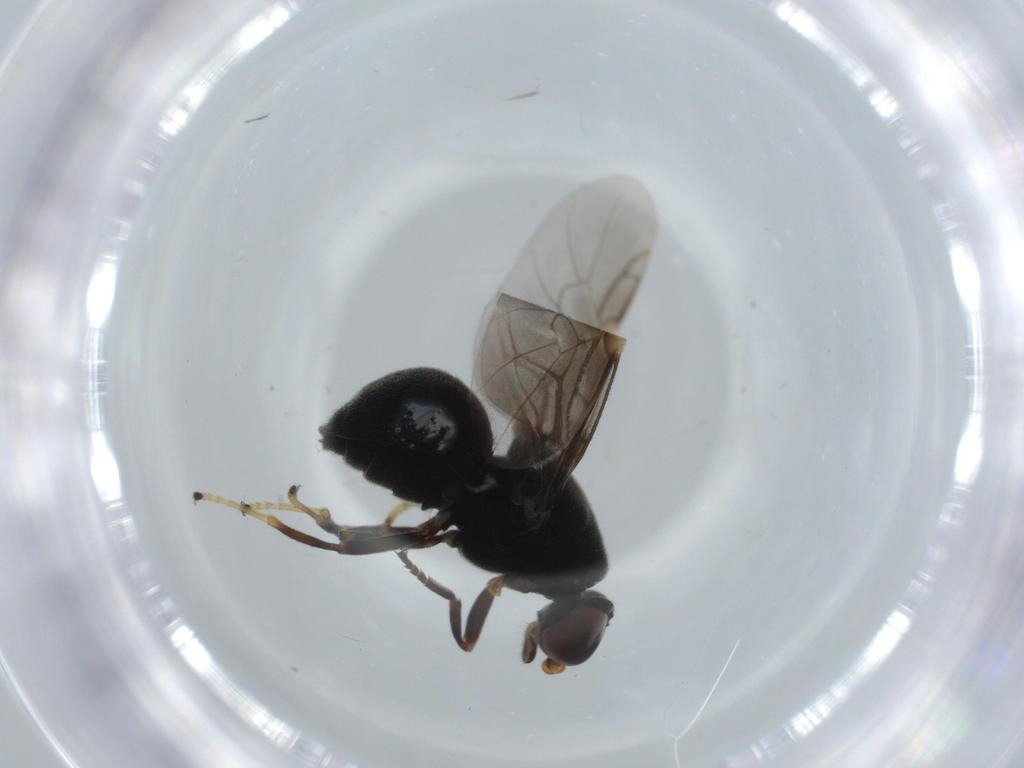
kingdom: Animalia
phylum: Arthropoda
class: Insecta
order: Diptera
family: Stratiomyidae
